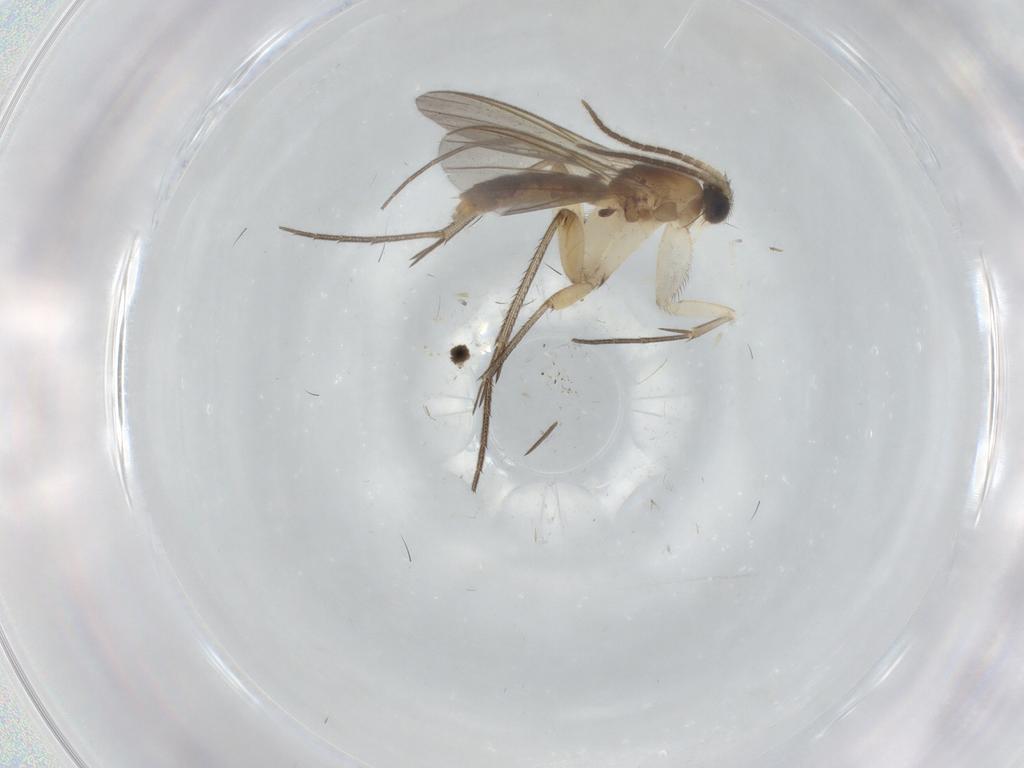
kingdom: Animalia
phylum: Arthropoda
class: Insecta
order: Diptera
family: Mycetophilidae
